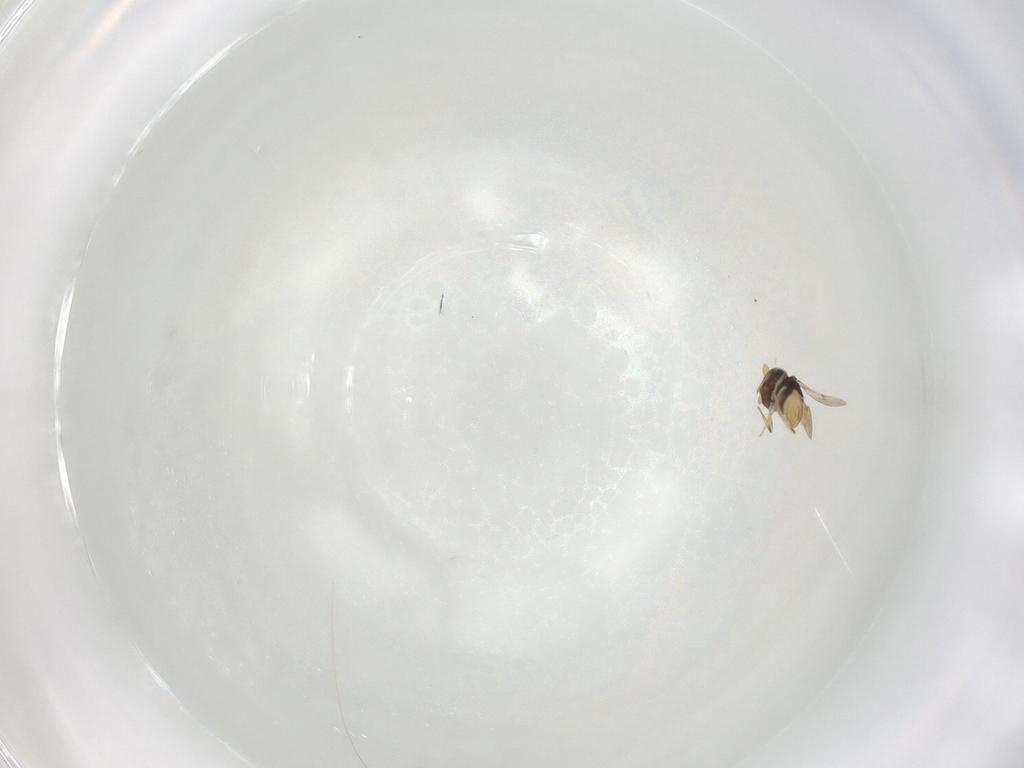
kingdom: Animalia
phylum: Arthropoda
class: Insecta
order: Hymenoptera
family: Scelionidae
